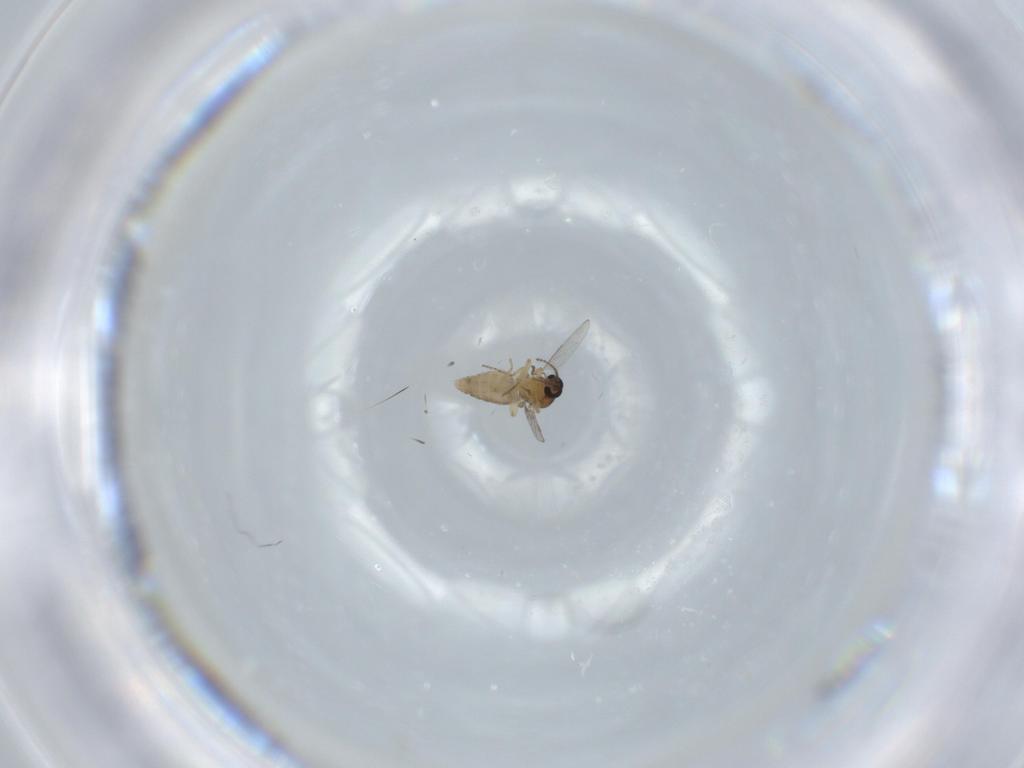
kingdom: Animalia
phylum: Arthropoda
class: Insecta
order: Diptera
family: Ceratopogonidae
